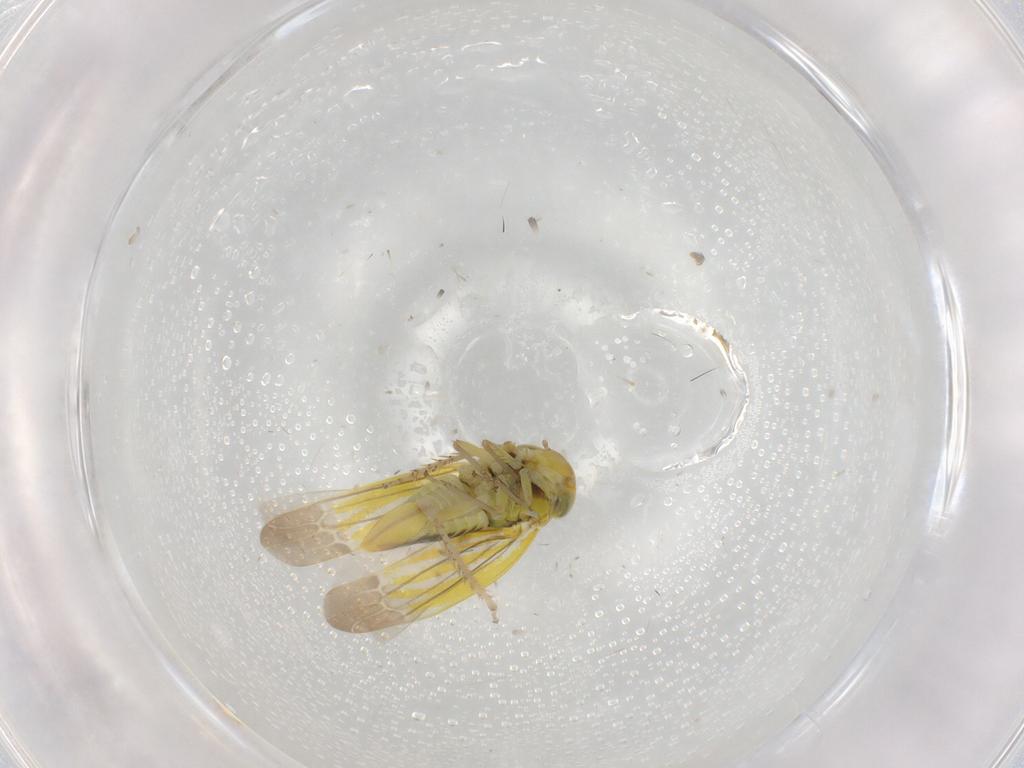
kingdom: Animalia
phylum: Arthropoda
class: Insecta
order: Hemiptera
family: Cicadellidae
